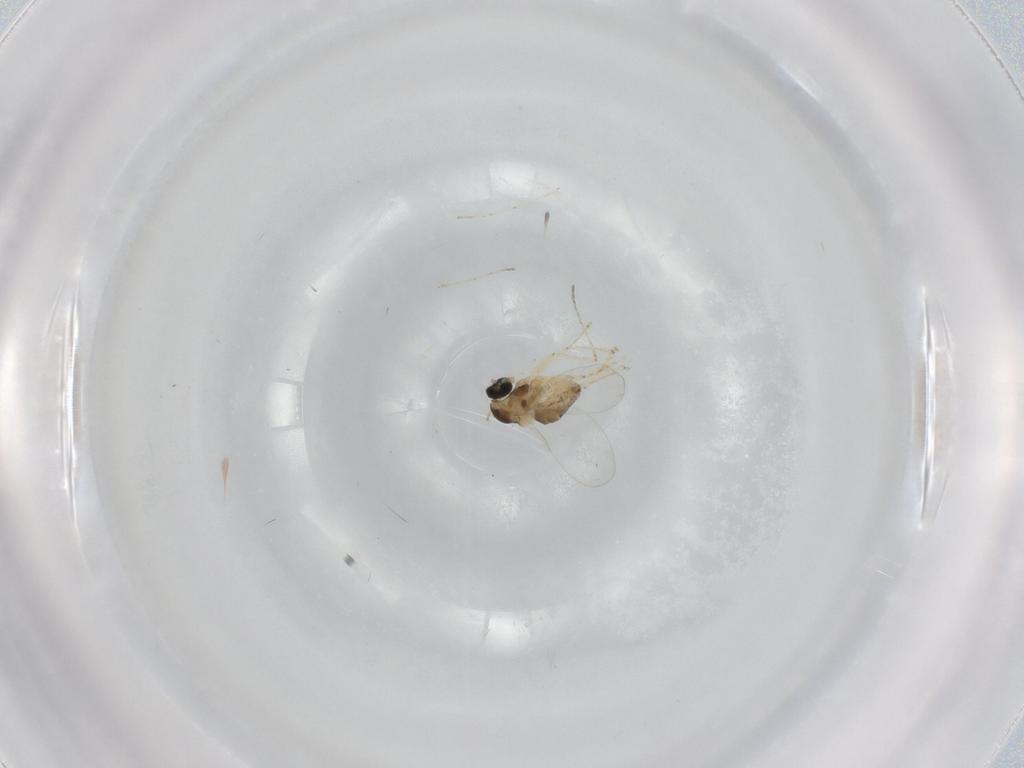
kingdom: Animalia
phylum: Arthropoda
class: Insecta
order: Diptera
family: Cecidomyiidae
